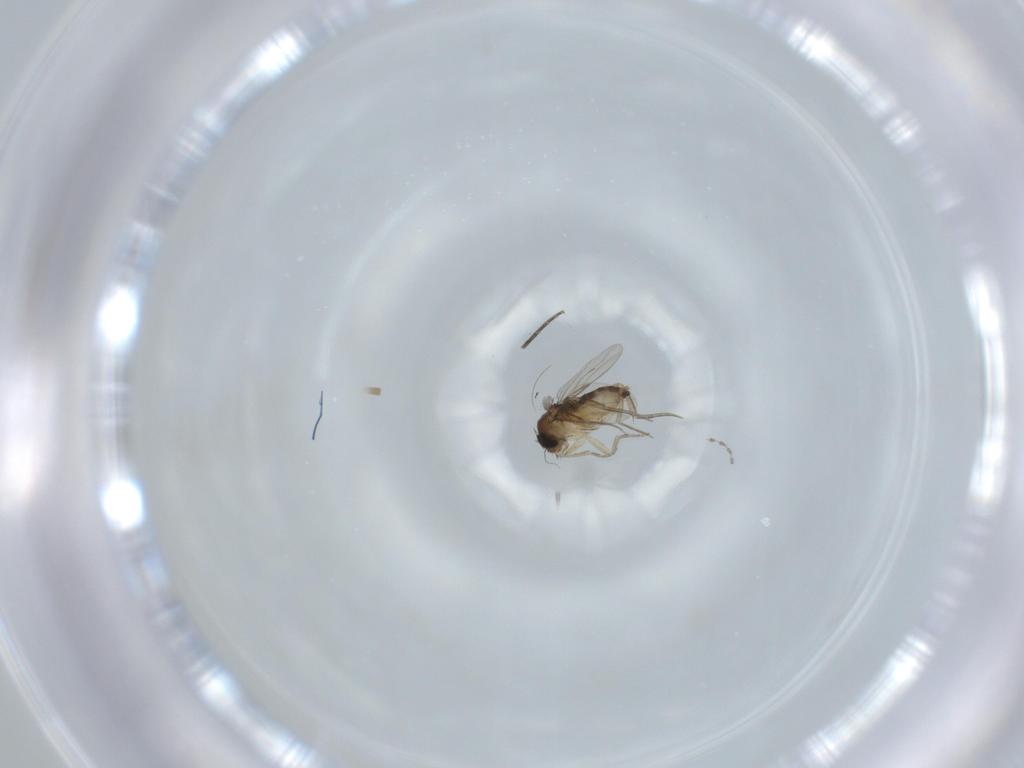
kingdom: Animalia
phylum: Arthropoda
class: Insecta
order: Diptera
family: Phoridae
